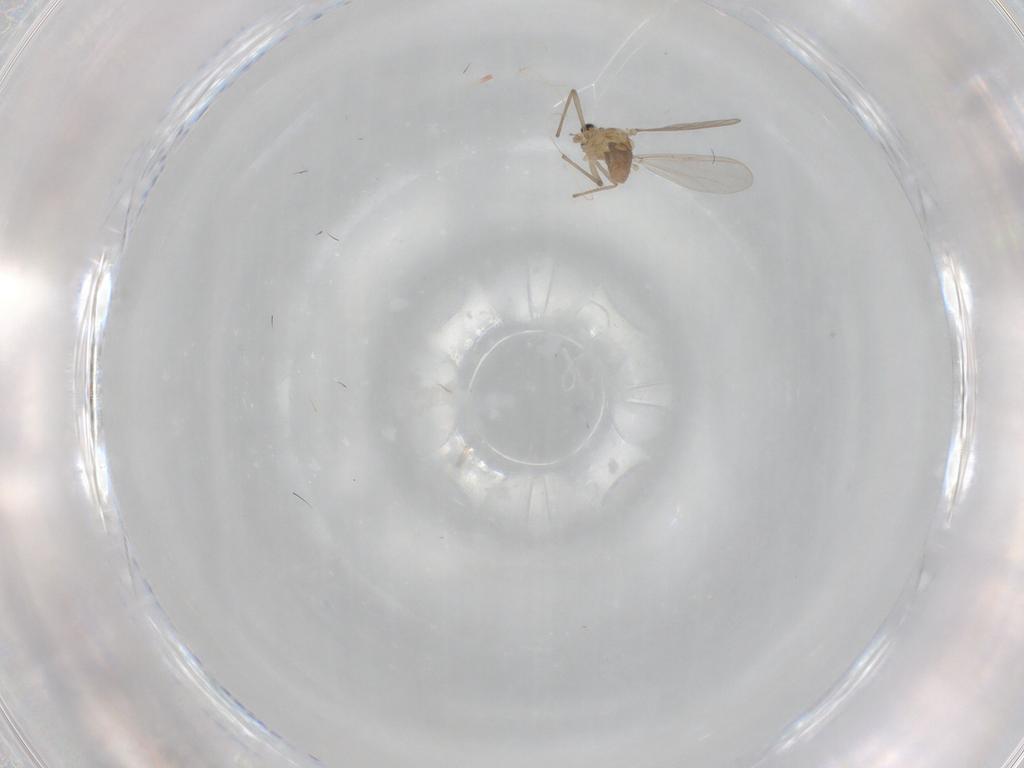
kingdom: Animalia
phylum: Arthropoda
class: Insecta
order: Diptera
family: Chironomidae
